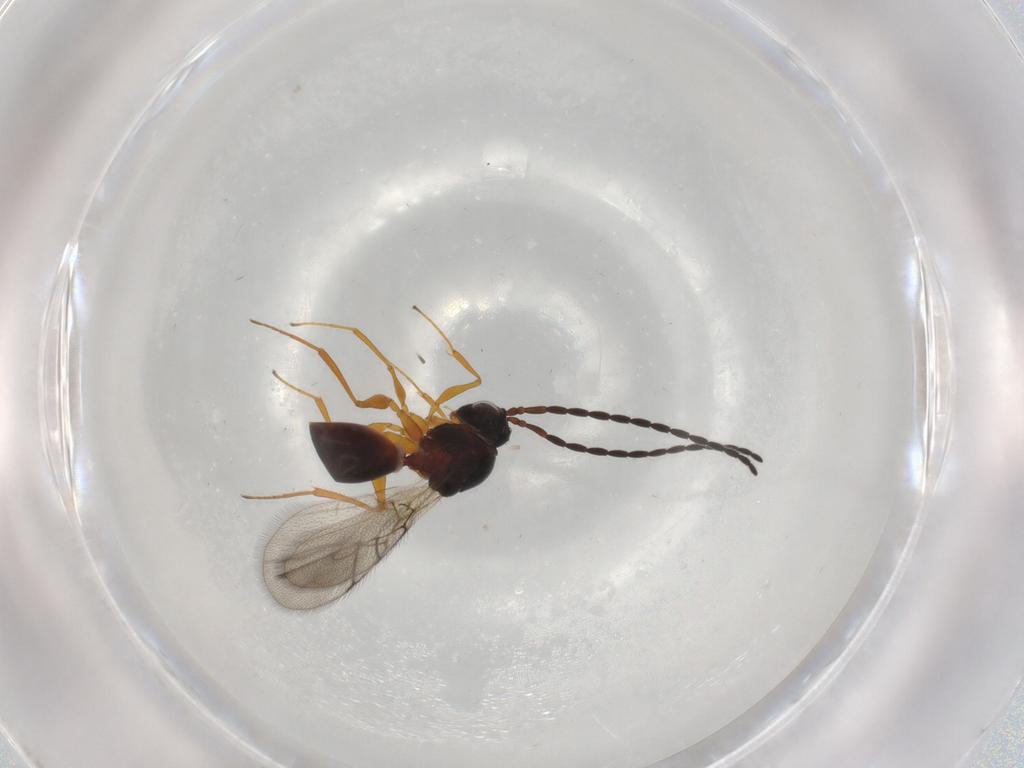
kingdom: Animalia
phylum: Arthropoda
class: Insecta
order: Hymenoptera
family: Figitidae
